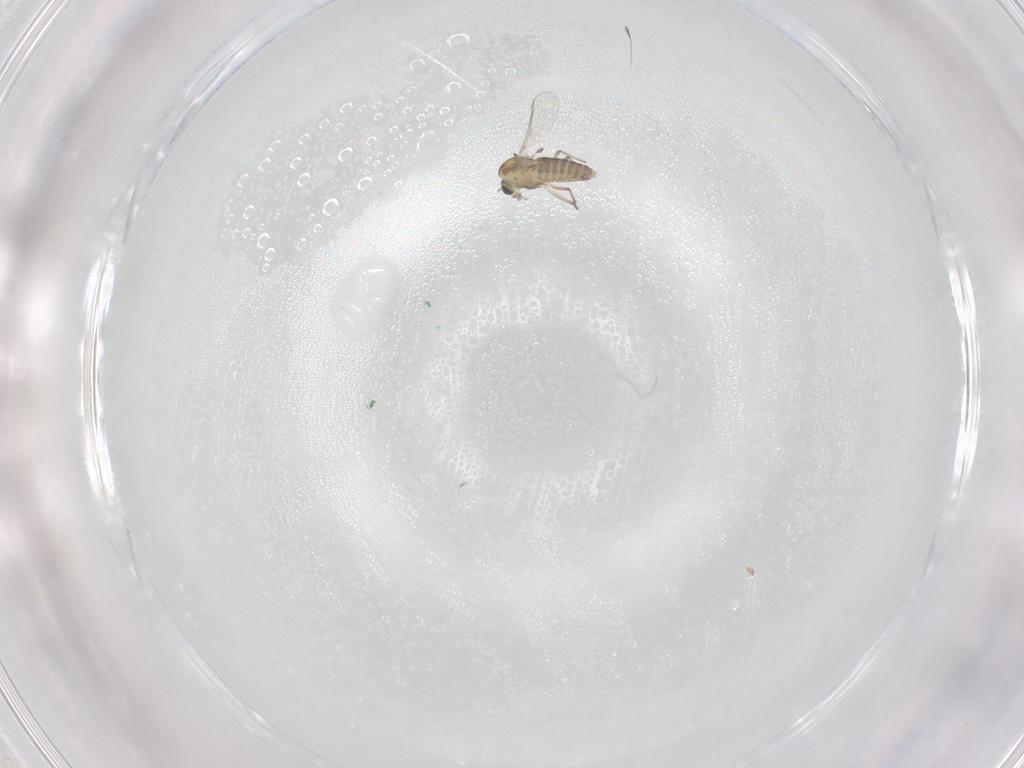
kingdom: Animalia
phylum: Arthropoda
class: Insecta
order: Diptera
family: Chironomidae
